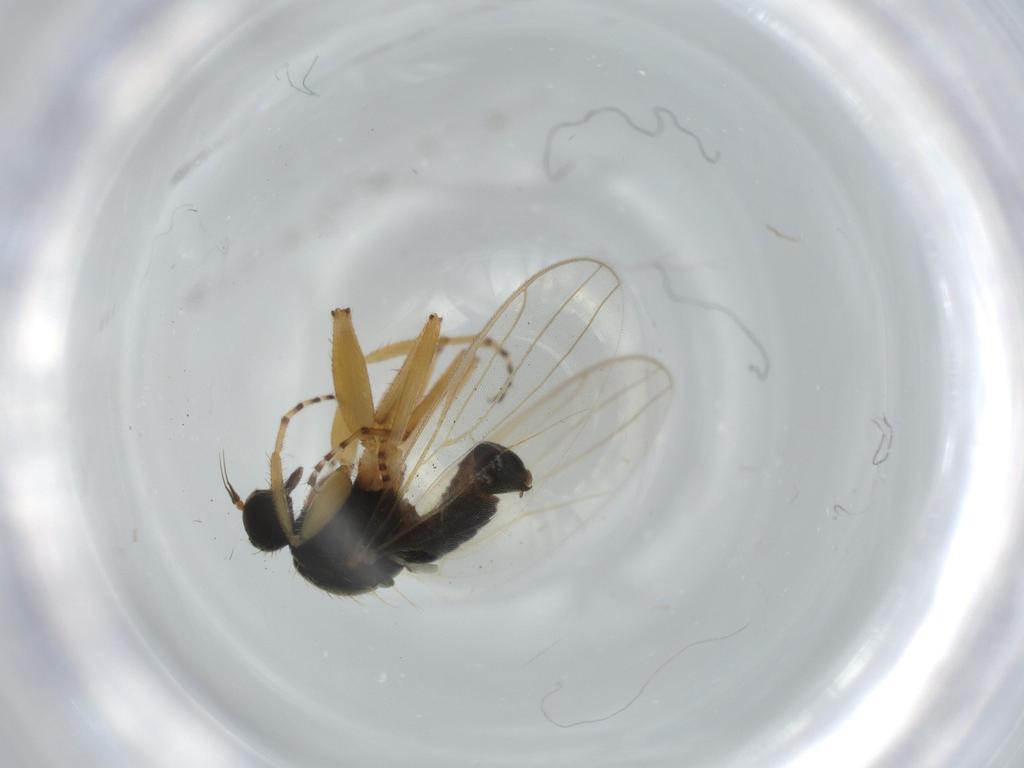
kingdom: Animalia
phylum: Arthropoda
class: Insecta
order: Diptera
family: Hybotidae
